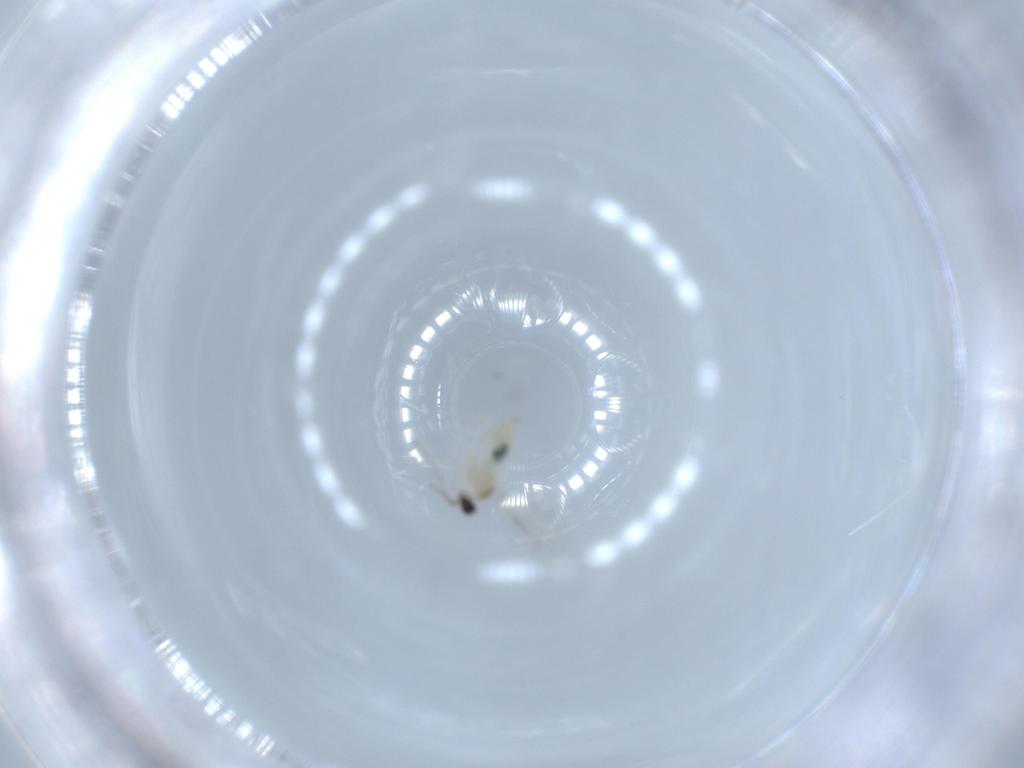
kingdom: Animalia
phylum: Arthropoda
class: Insecta
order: Diptera
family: Cecidomyiidae
